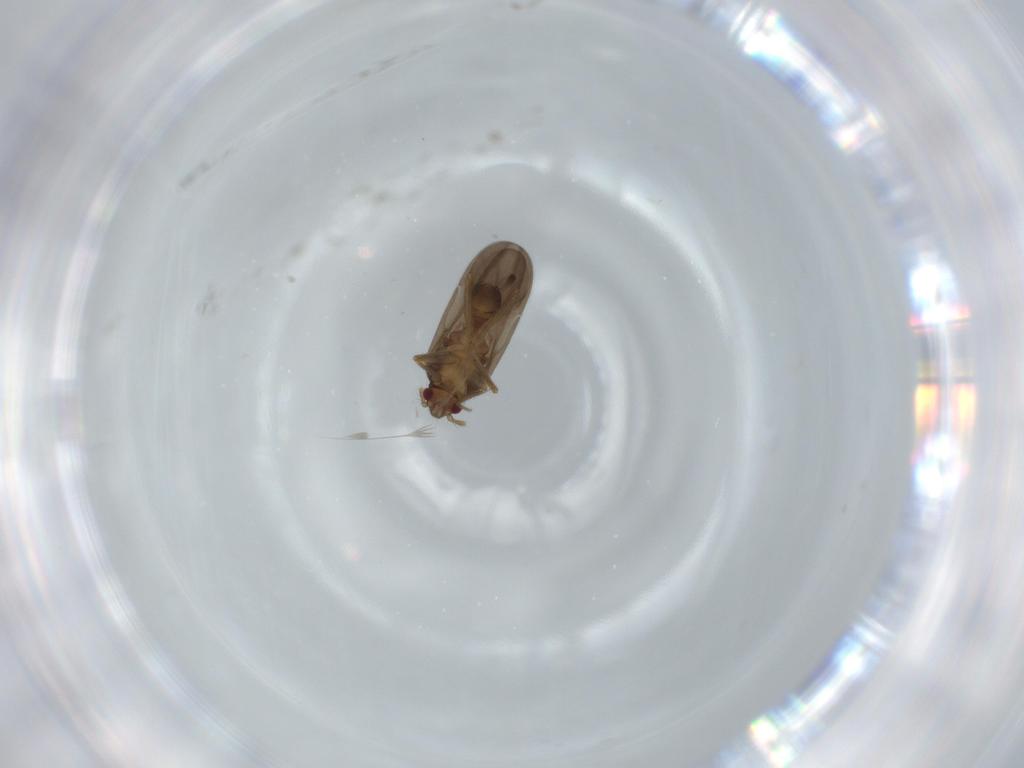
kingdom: Animalia
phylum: Arthropoda
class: Insecta
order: Hemiptera
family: Ceratocombidae
